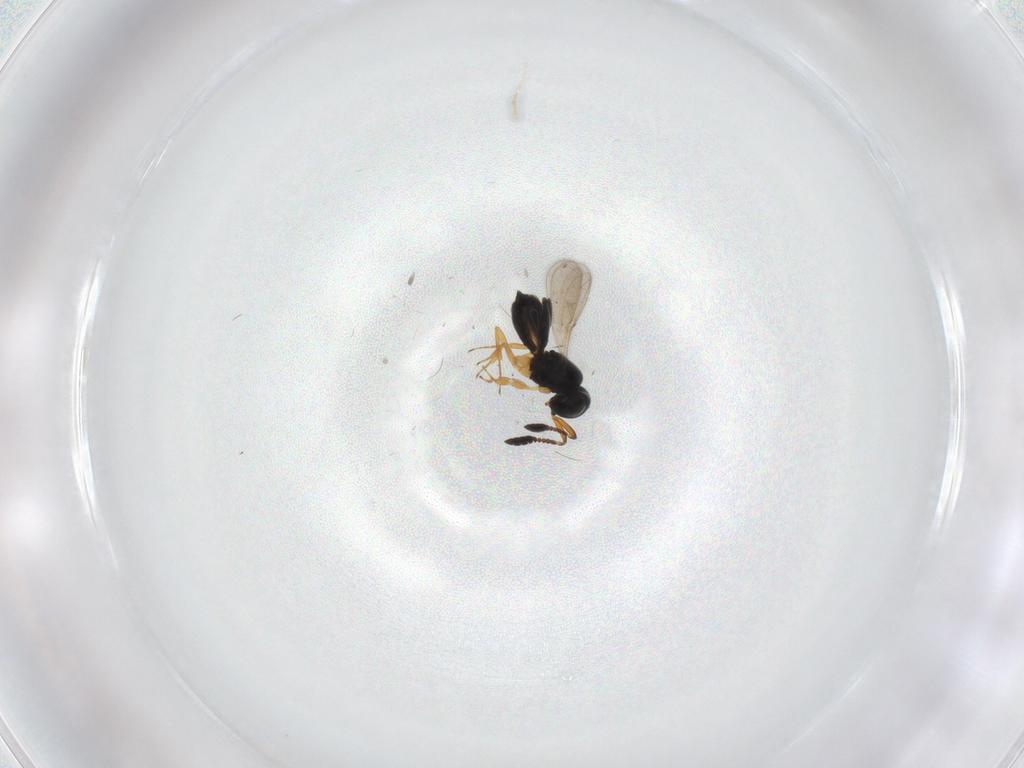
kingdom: Animalia
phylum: Arthropoda
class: Insecta
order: Hymenoptera
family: Scelionidae
